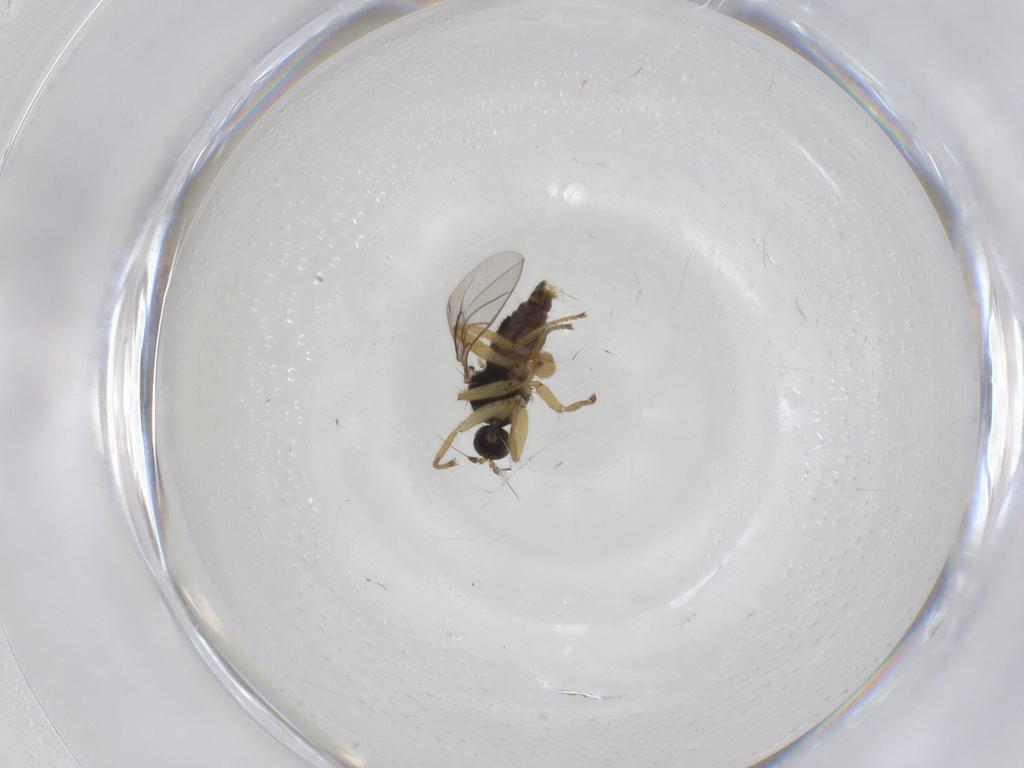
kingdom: Animalia
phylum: Arthropoda
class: Insecta
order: Diptera
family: Hybotidae
